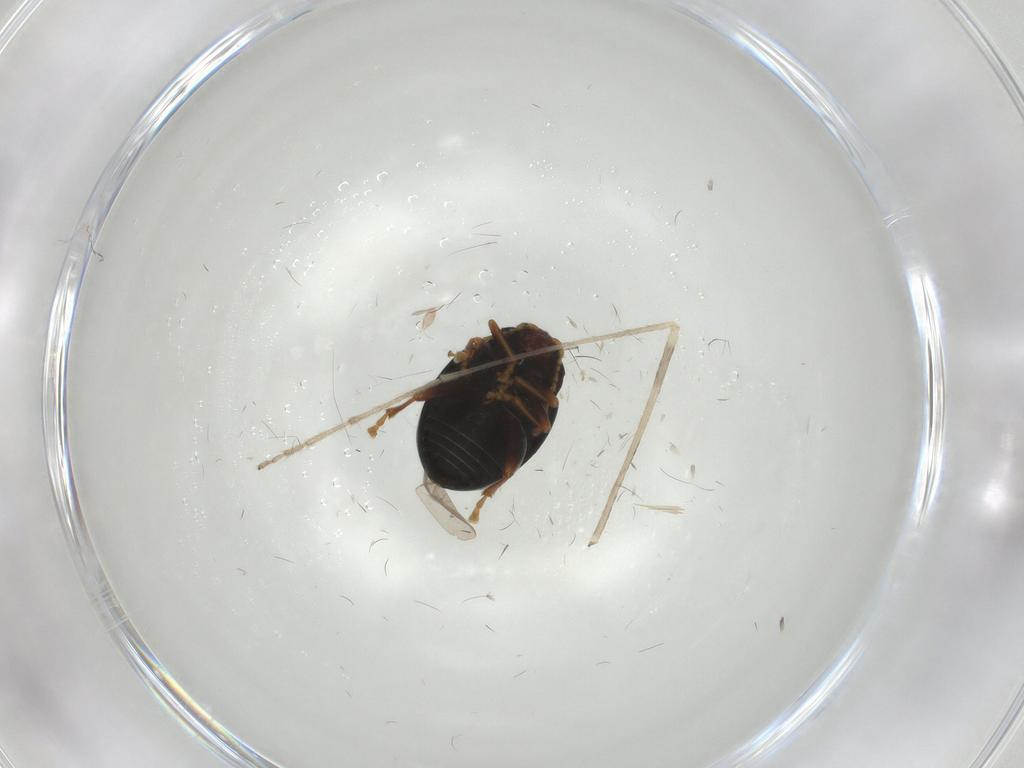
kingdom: Animalia
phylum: Arthropoda
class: Insecta
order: Coleoptera
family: Chrysomelidae
